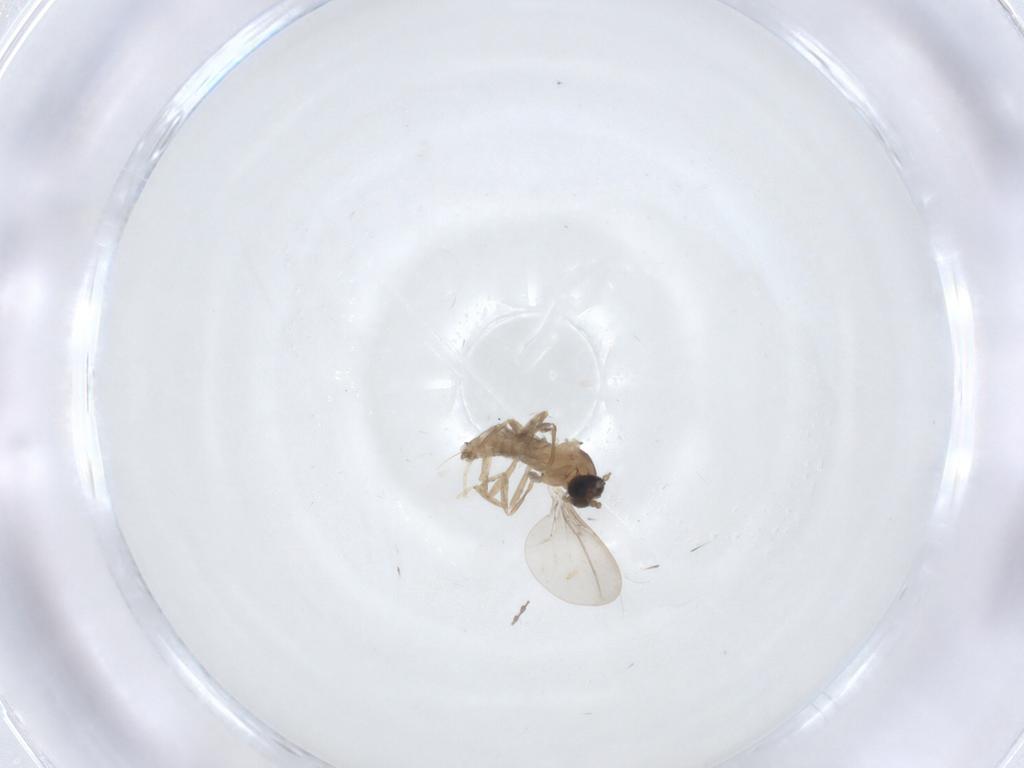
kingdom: Animalia
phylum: Arthropoda
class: Insecta
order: Diptera
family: Cecidomyiidae
